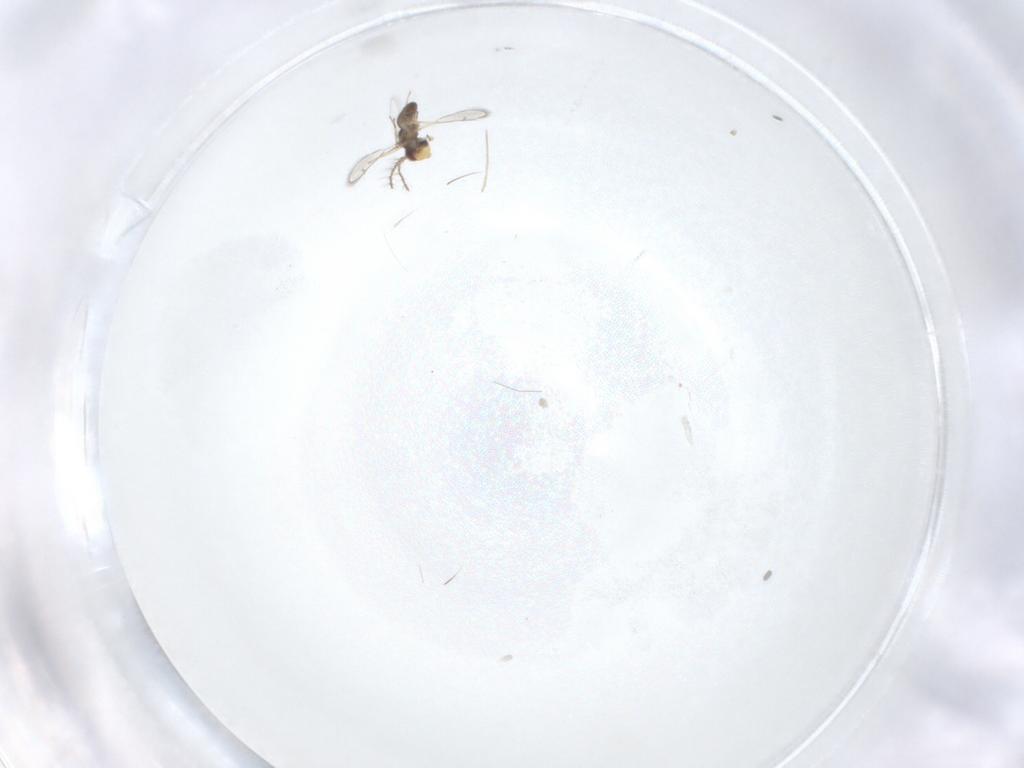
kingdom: Animalia
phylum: Arthropoda
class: Insecta
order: Hymenoptera
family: Eulophidae
